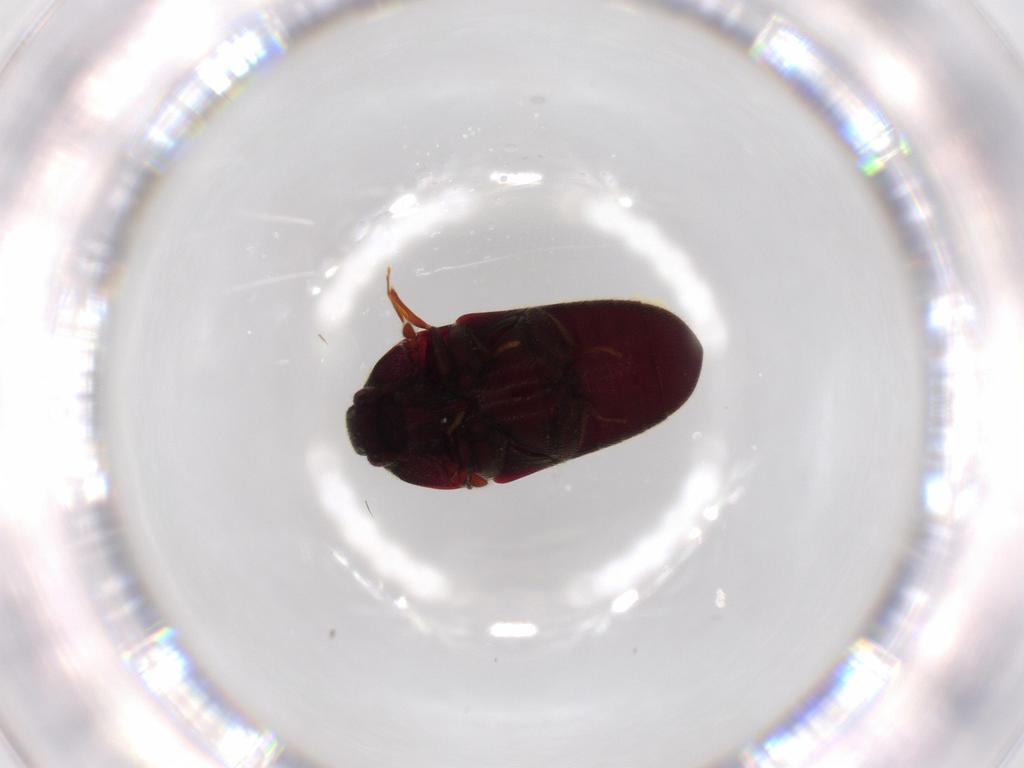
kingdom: Animalia
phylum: Arthropoda
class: Insecta
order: Coleoptera
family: Throscidae
